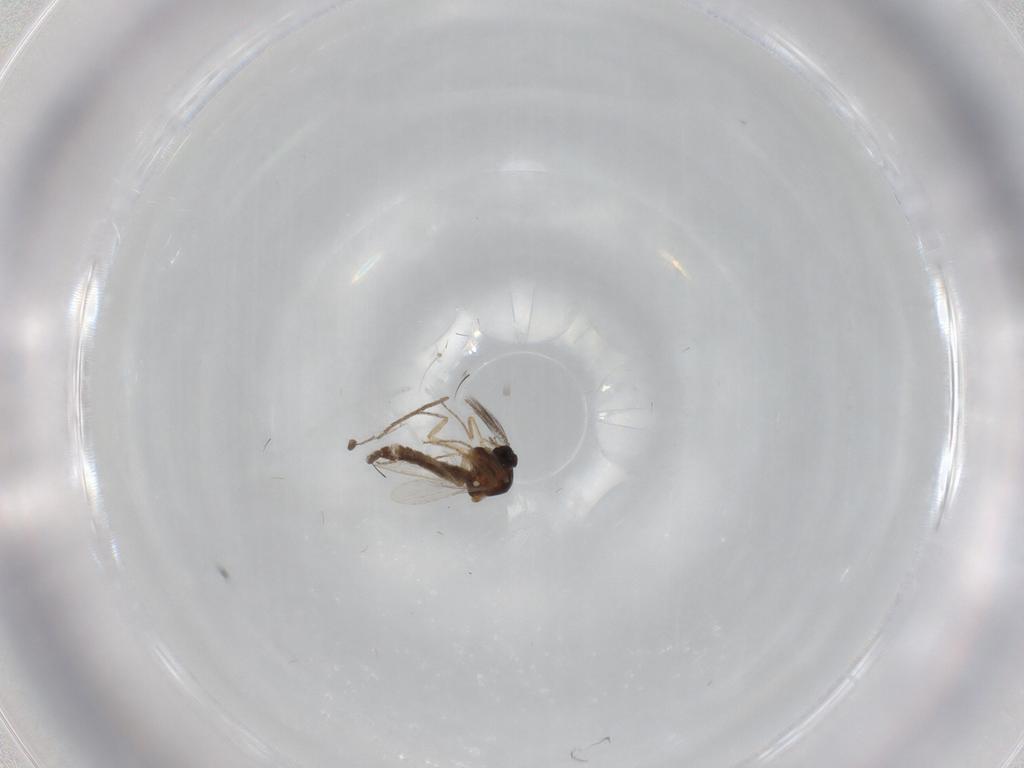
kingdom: Animalia
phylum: Arthropoda
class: Insecta
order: Diptera
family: Ceratopogonidae
